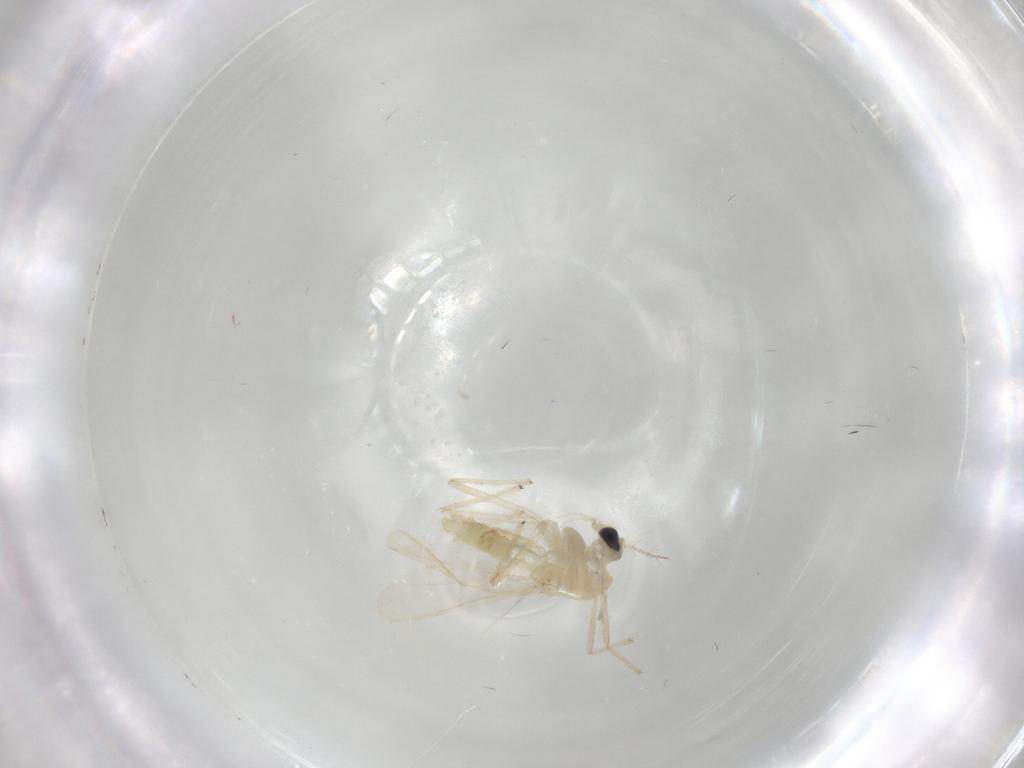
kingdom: Animalia
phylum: Arthropoda
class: Insecta
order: Diptera
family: Chironomidae
